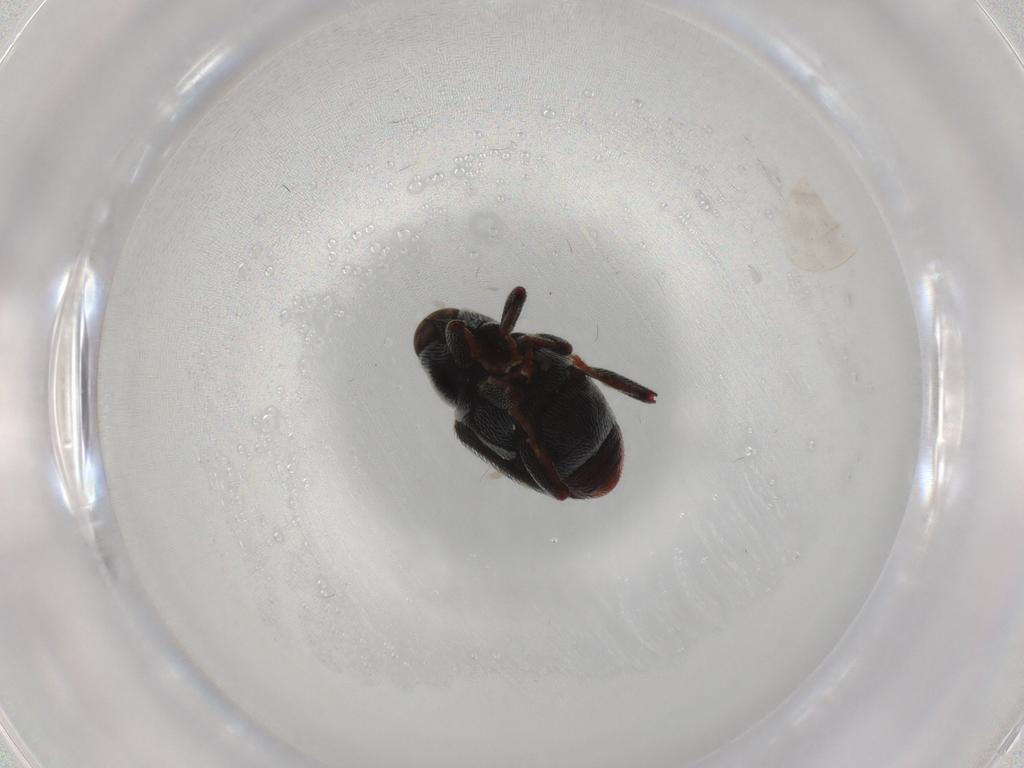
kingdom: Animalia
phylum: Arthropoda
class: Insecta
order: Coleoptera
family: Curculionidae
